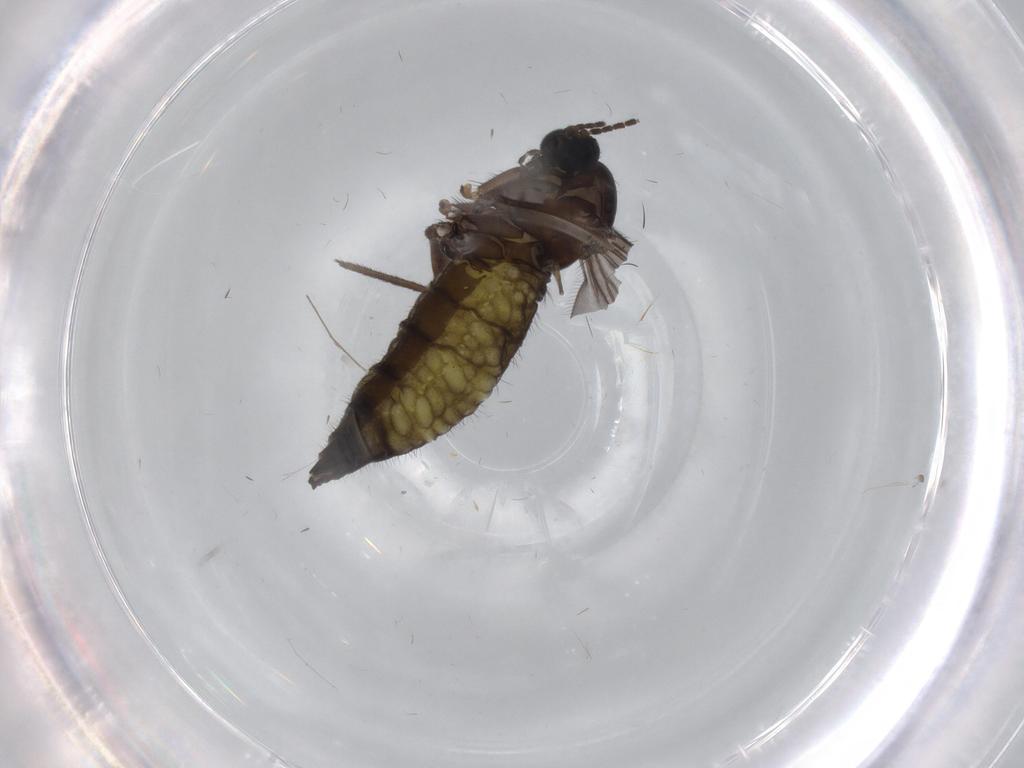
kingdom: Animalia
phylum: Arthropoda
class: Insecta
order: Diptera
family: Sciaridae
